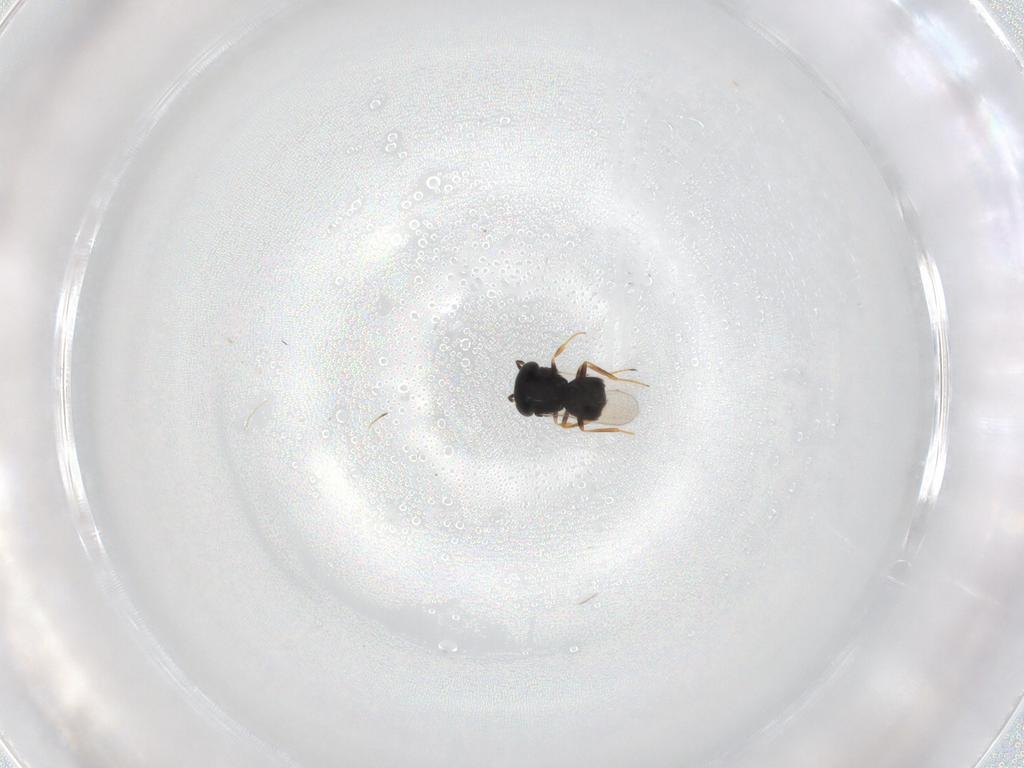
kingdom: Animalia
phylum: Arthropoda
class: Insecta
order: Hymenoptera
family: Scelionidae
